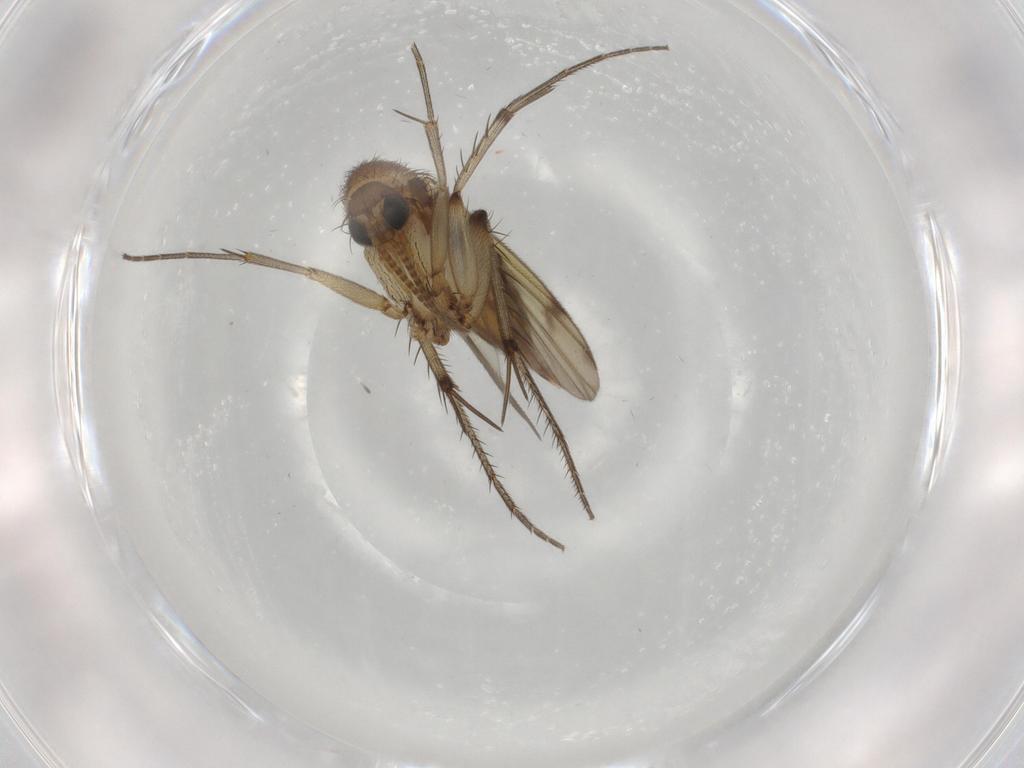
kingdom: Animalia
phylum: Arthropoda
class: Insecta
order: Diptera
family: Mycetophilidae
